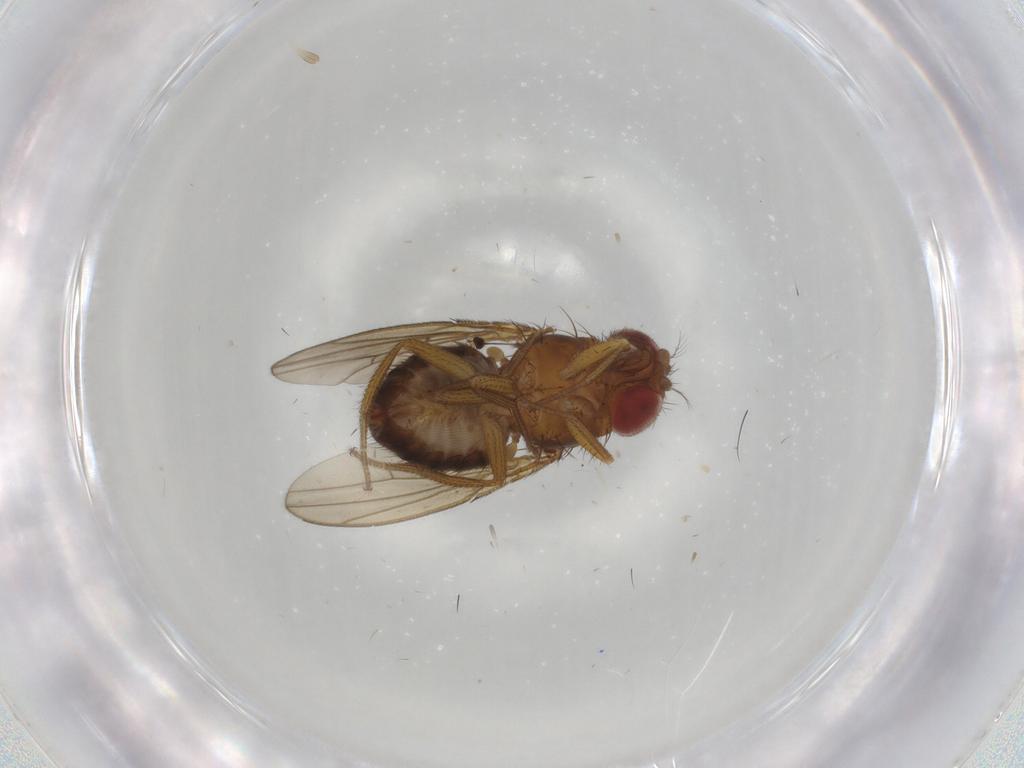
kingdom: Animalia
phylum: Arthropoda
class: Insecta
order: Diptera
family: Drosophilidae
